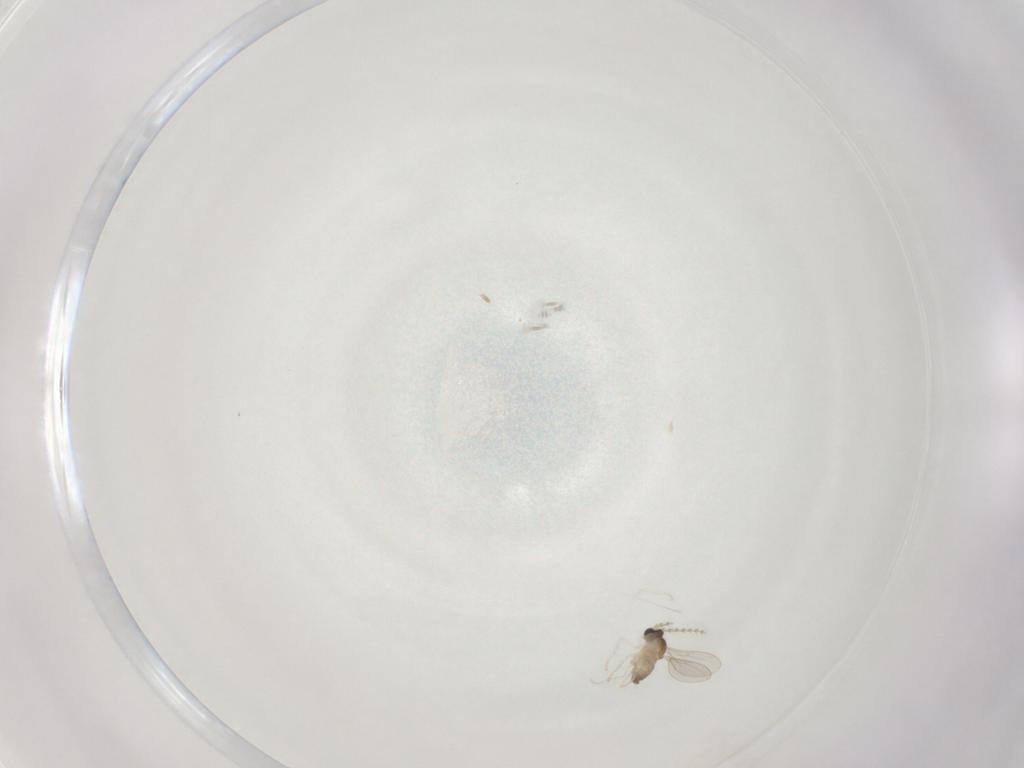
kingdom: Animalia
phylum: Arthropoda
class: Insecta
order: Diptera
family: Cecidomyiidae
